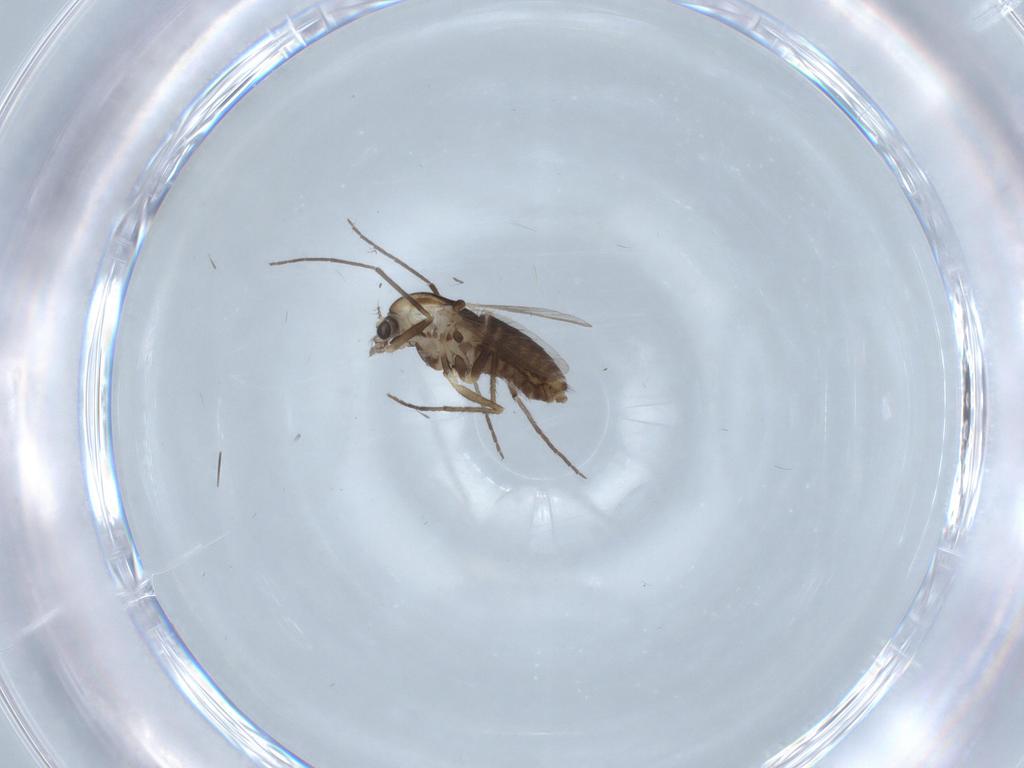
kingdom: Animalia
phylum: Arthropoda
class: Insecta
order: Diptera
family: Chironomidae
